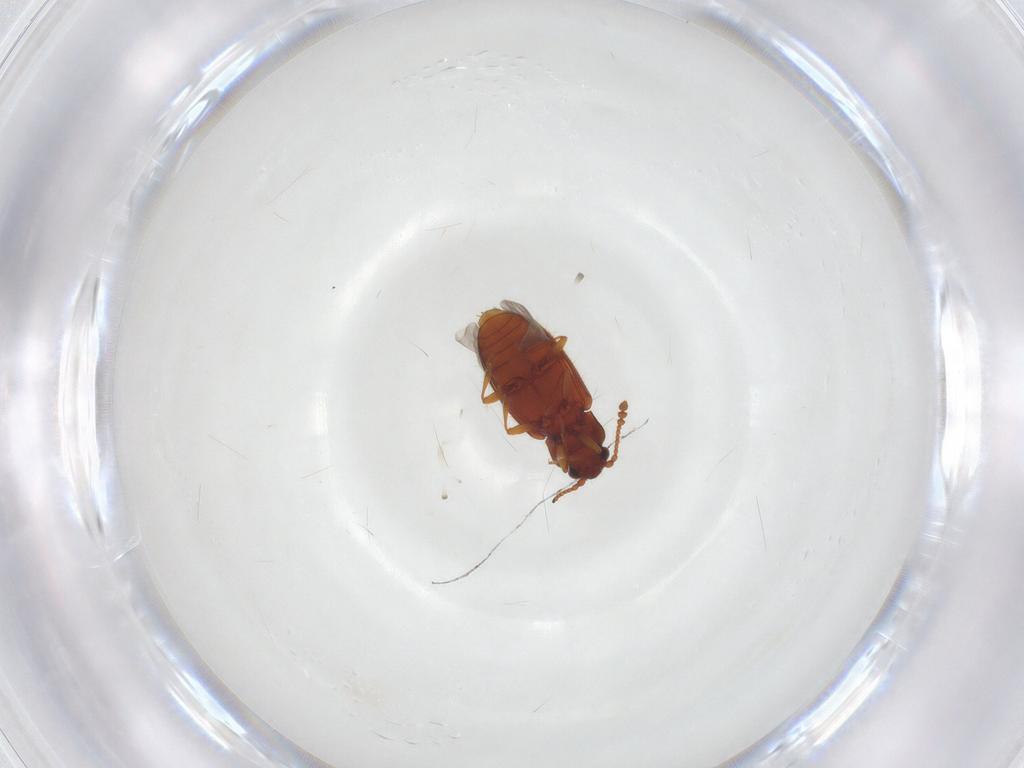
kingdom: Animalia
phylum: Arthropoda
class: Insecta
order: Coleoptera
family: Cryptophagidae
